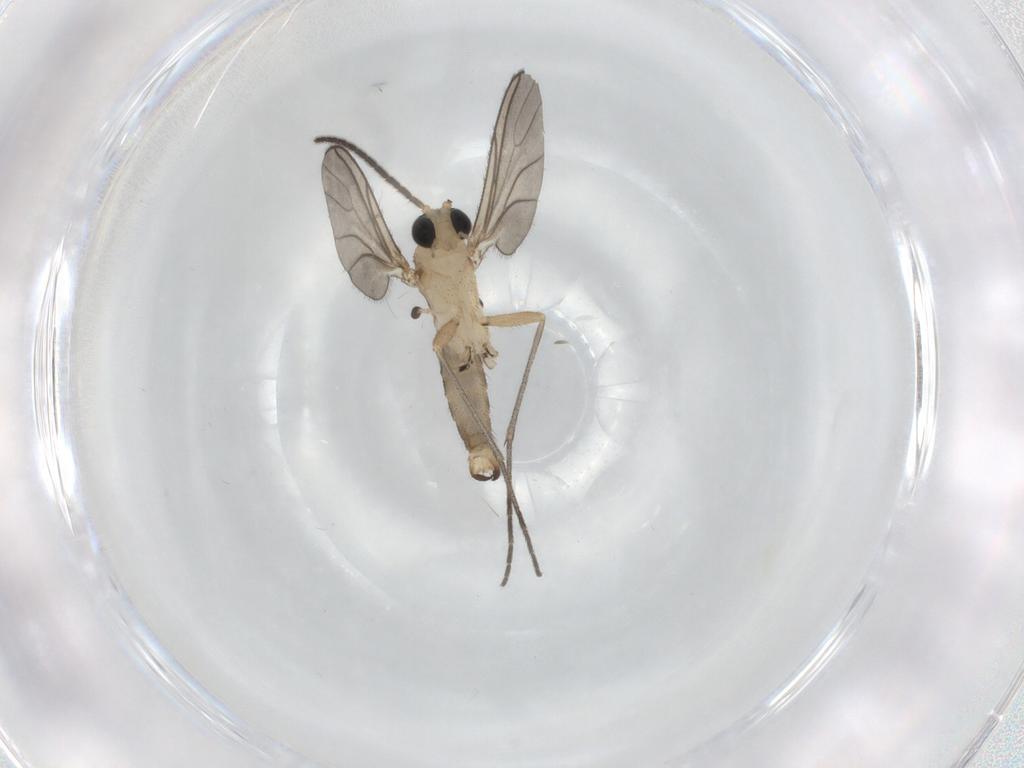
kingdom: Animalia
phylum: Arthropoda
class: Insecta
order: Diptera
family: Sciaridae
